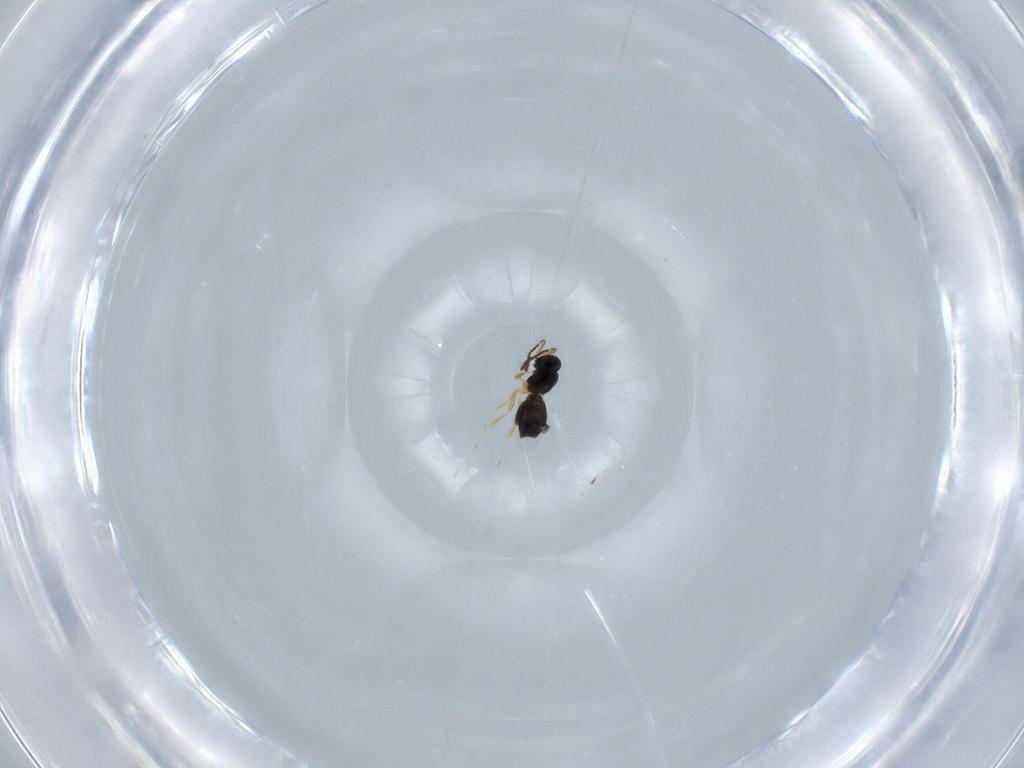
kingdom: Animalia
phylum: Arthropoda
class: Insecta
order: Hymenoptera
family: Scelionidae
